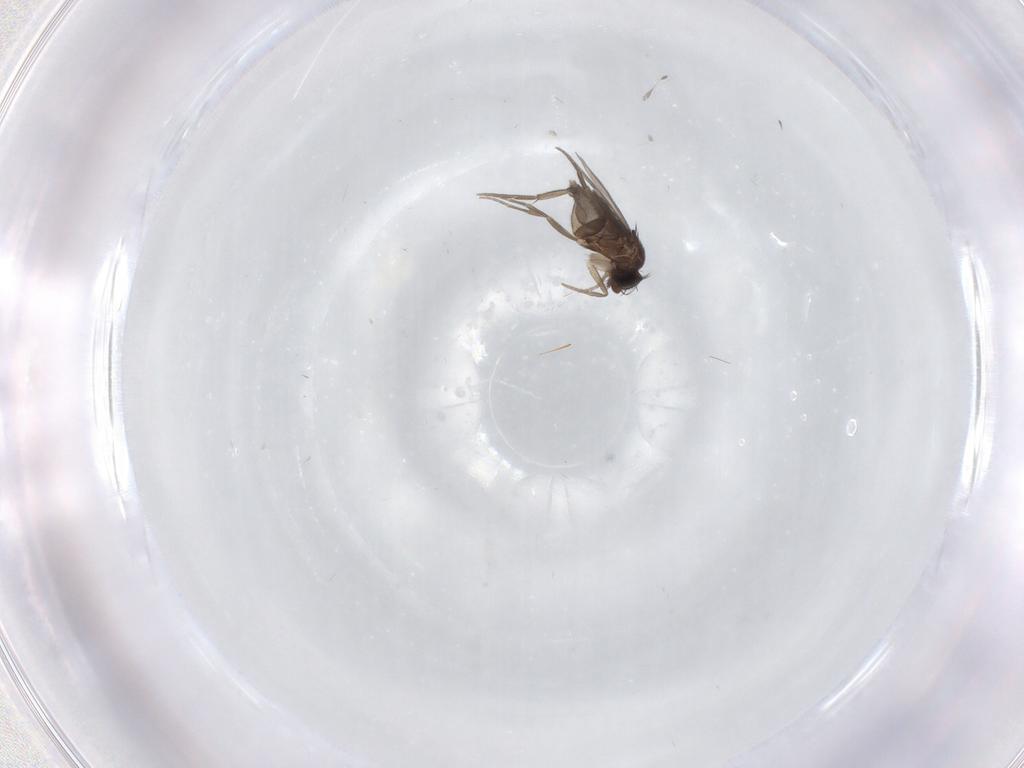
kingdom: Animalia
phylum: Arthropoda
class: Insecta
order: Diptera
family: Phoridae
